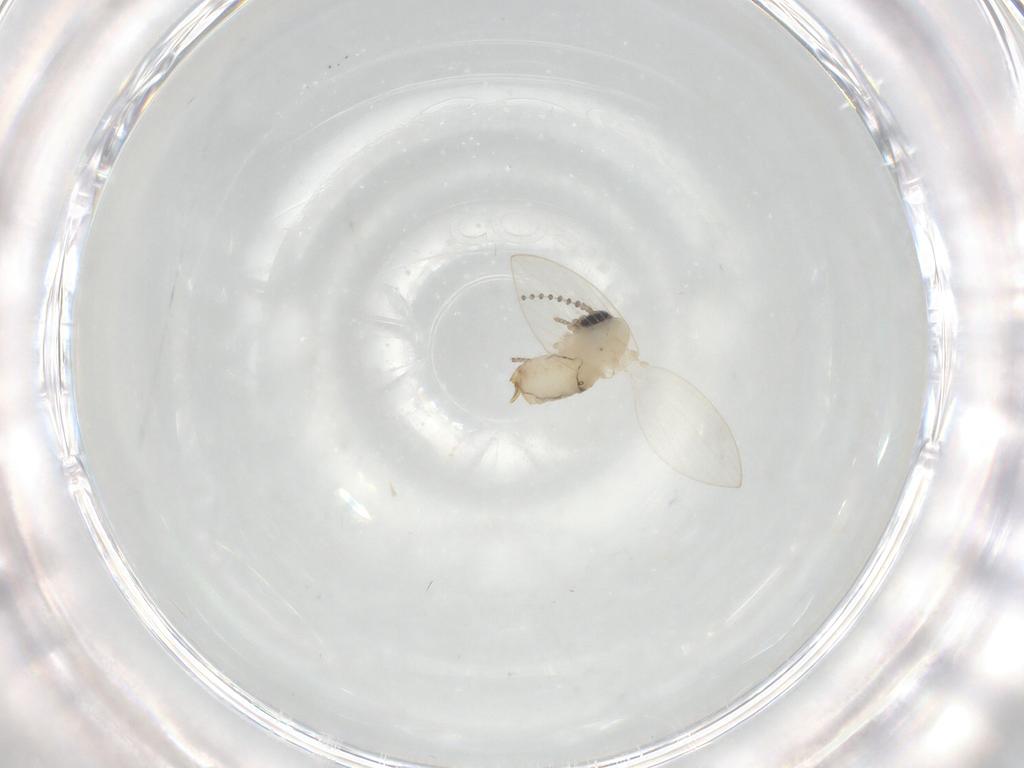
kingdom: Animalia
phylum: Arthropoda
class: Insecta
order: Diptera
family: Psychodidae
